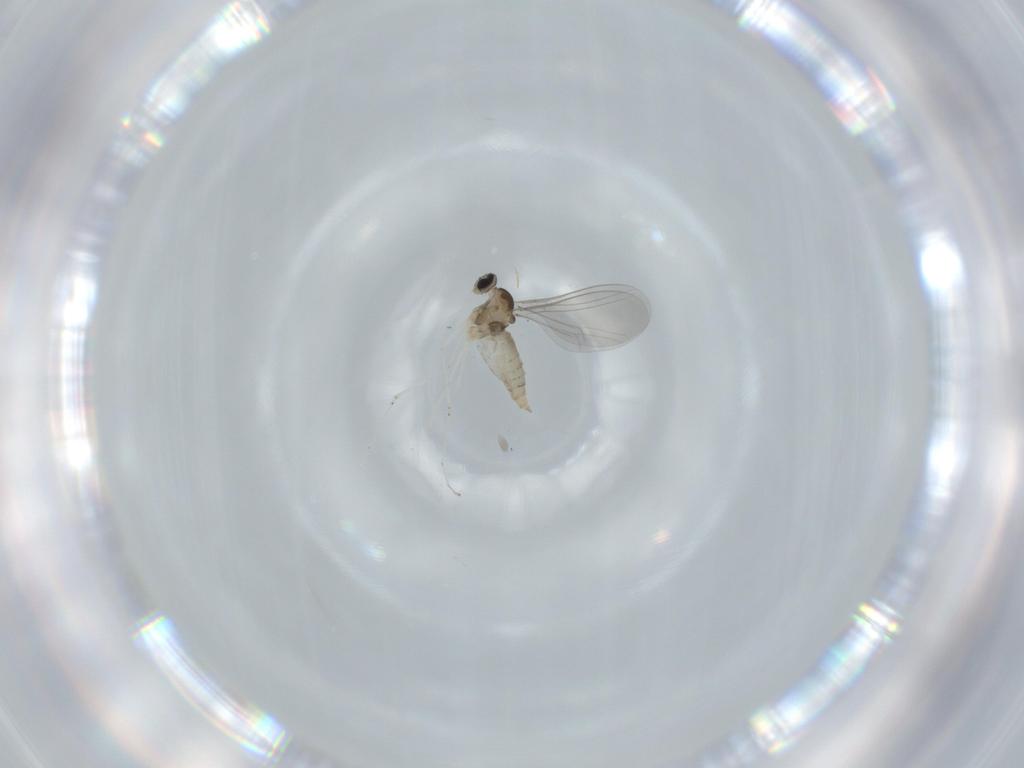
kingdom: Animalia
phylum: Arthropoda
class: Insecta
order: Diptera
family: Cecidomyiidae
